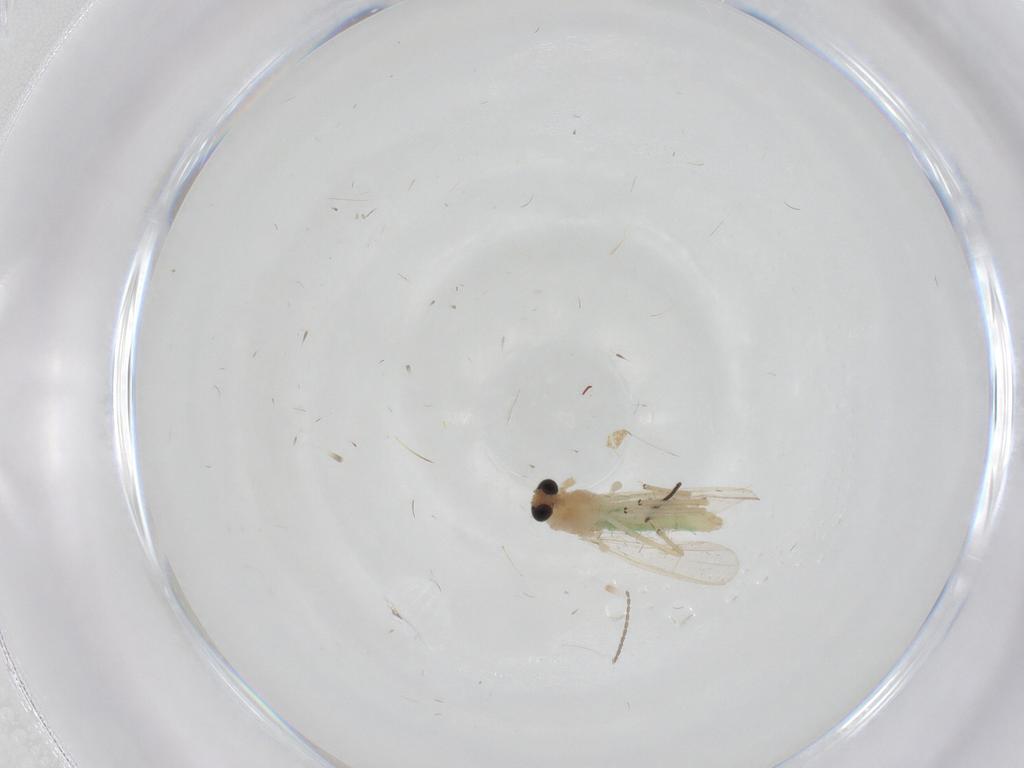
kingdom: Animalia
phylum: Arthropoda
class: Insecta
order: Diptera
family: Chironomidae
